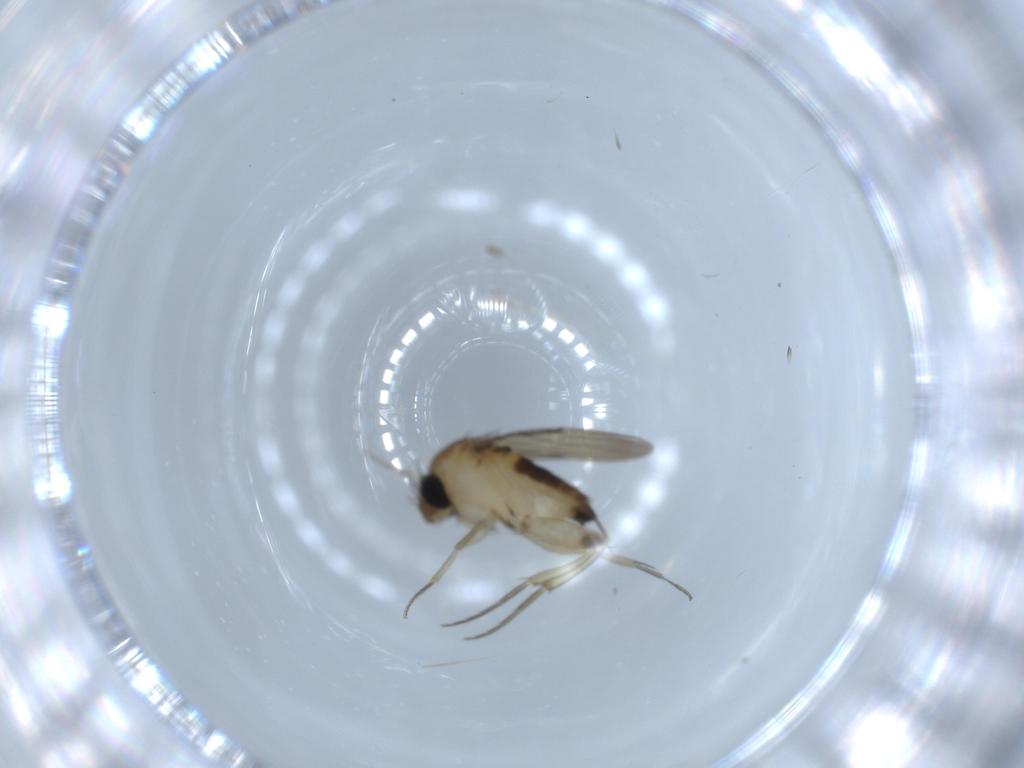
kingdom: Animalia
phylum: Arthropoda
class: Insecta
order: Diptera
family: Phoridae
